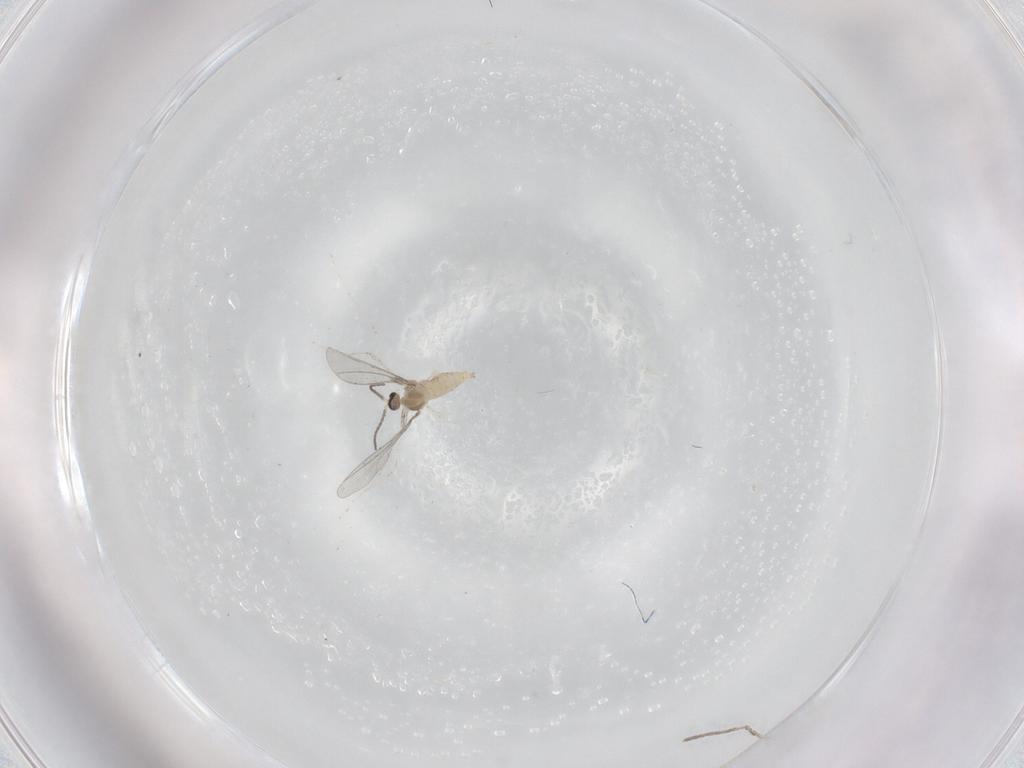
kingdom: Animalia
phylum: Arthropoda
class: Insecta
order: Diptera
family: Cecidomyiidae
